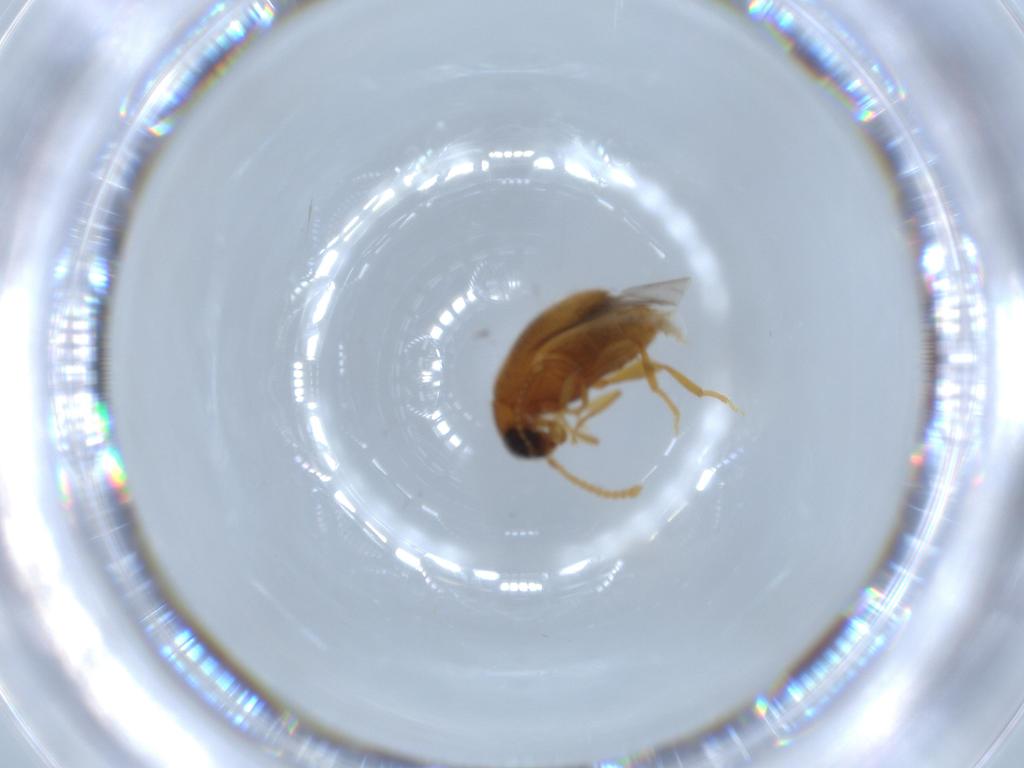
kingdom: Animalia
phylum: Arthropoda
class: Insecta
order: Coleoptera
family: Aderidae
